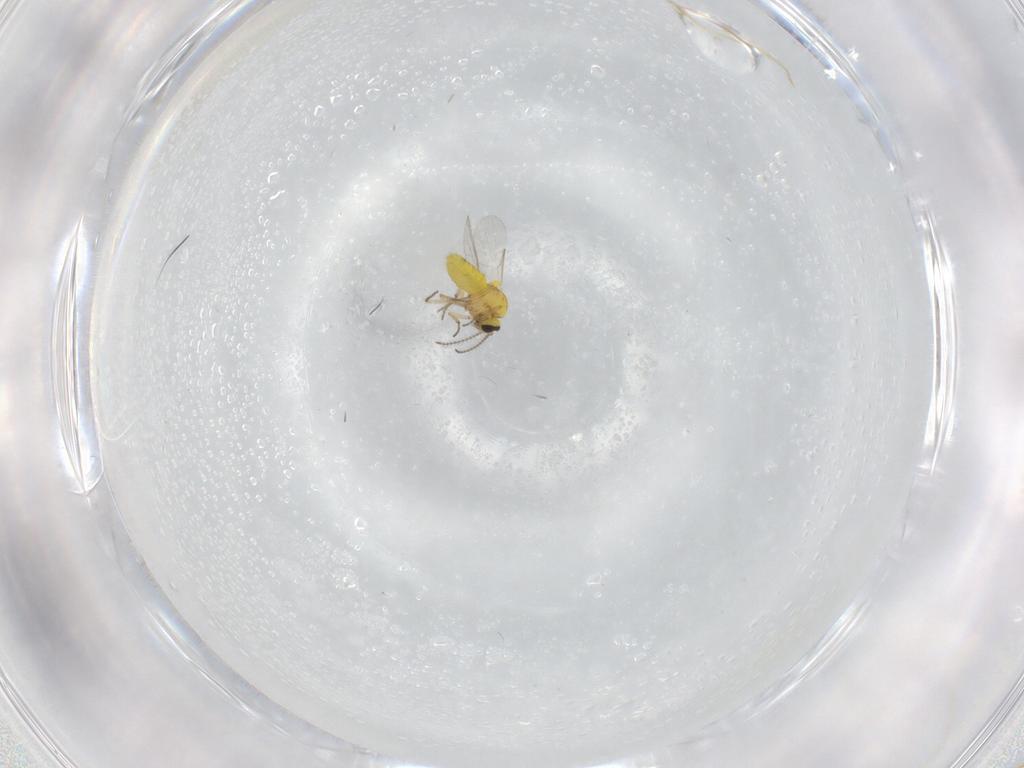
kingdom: Animalia
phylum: Arthropoda
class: Insecta
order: Diptera
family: Ceratopogonidae
